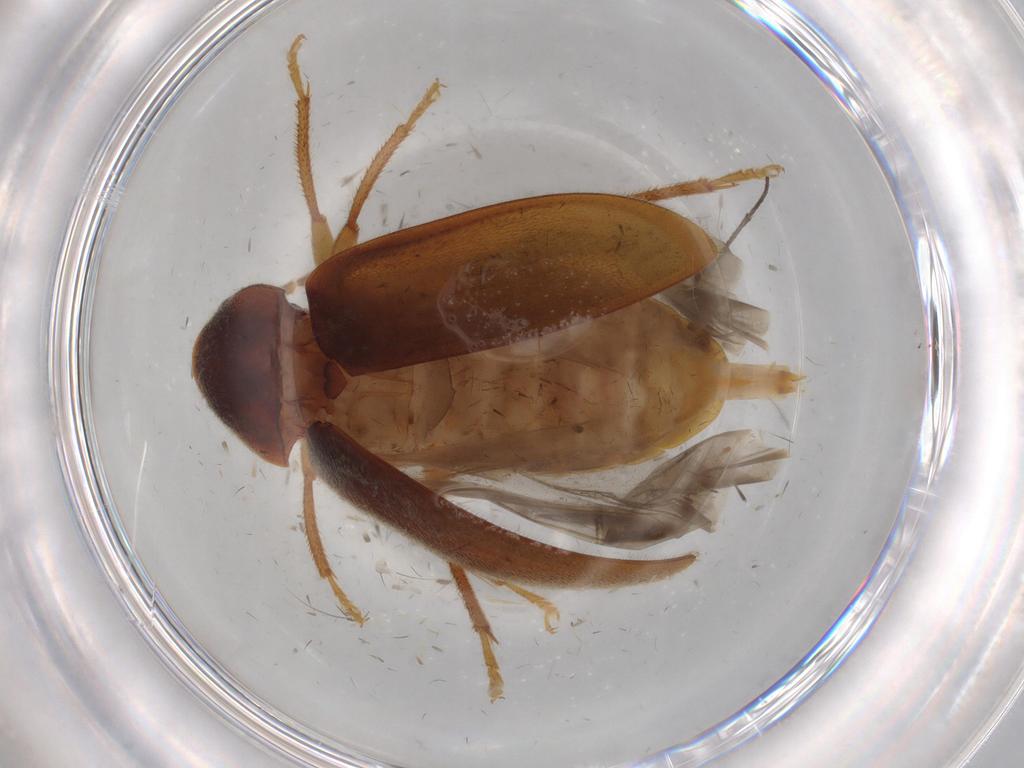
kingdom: Animalia
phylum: Arthropoda
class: Insecta
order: Coleoptera
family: Ptilodactylidae
